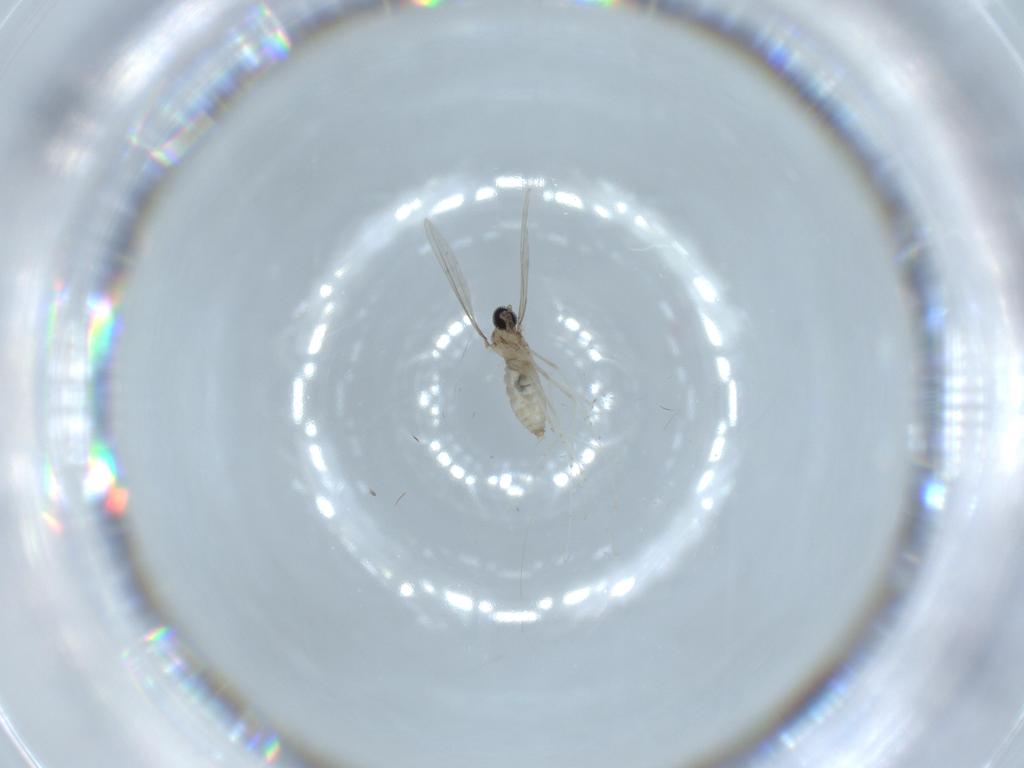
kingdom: Animalia
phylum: Arthropoda
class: Insecta
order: Diptera
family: Cecidomyiidae
